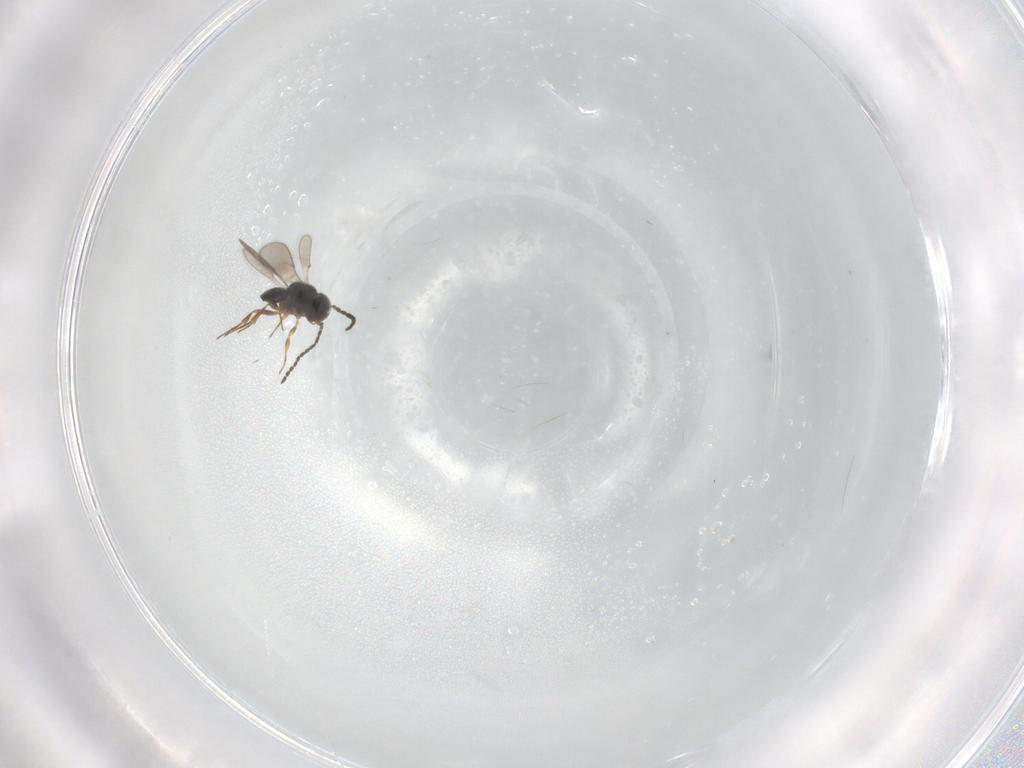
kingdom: Animalia
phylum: Arthropoda
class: Insecta
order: Hymenoptera
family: Scelionidae
